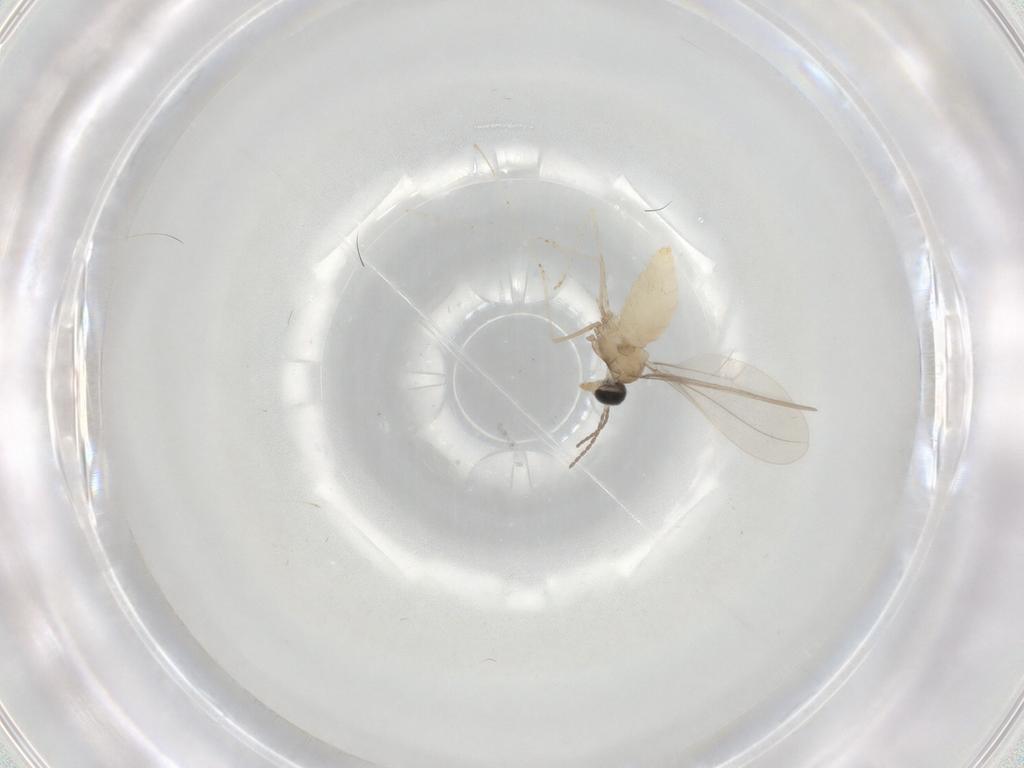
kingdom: Animalia
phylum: Arthropoda
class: Insecta
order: Diptera
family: Cecidomyiidae
